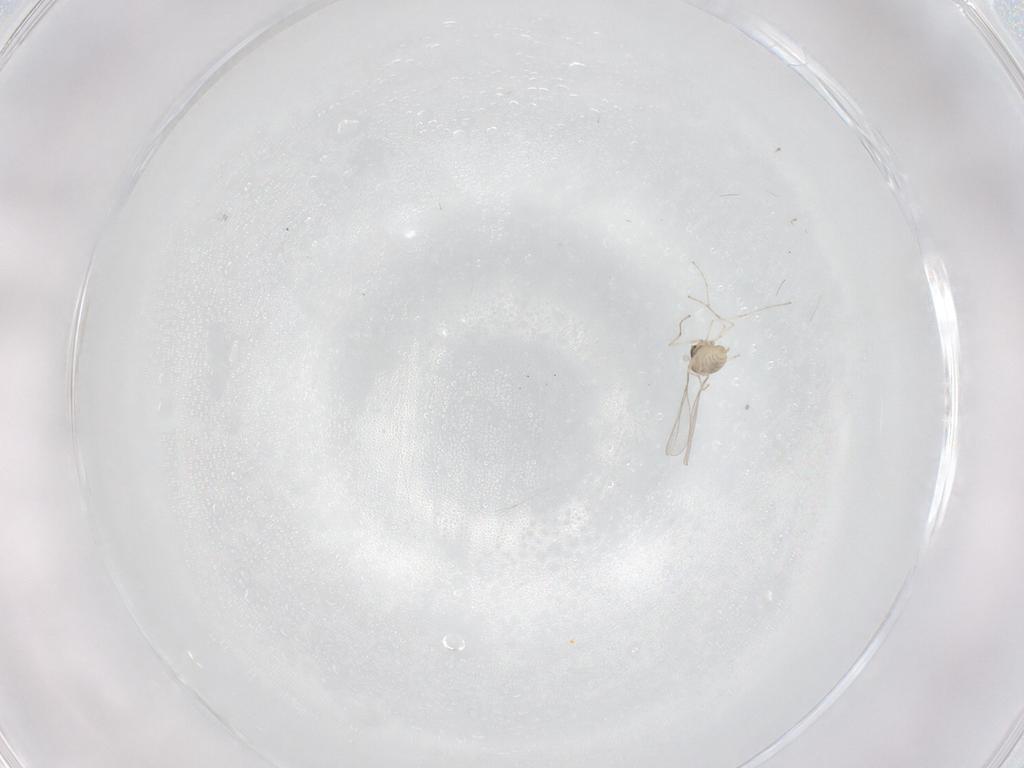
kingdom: Animalia
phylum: Arthropoda
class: Insecta
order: Diptera
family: Cecidomyiidae
